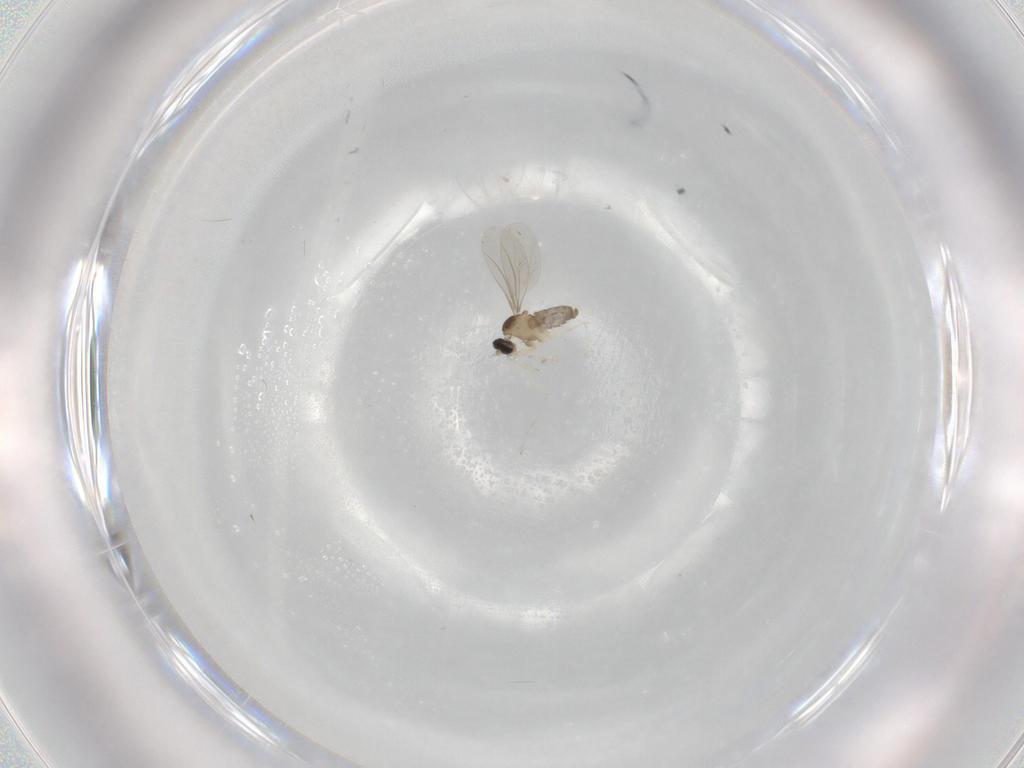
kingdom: Animalia
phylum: Arthropoda
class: Insecta
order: Diptera
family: Cecidomyiidae
